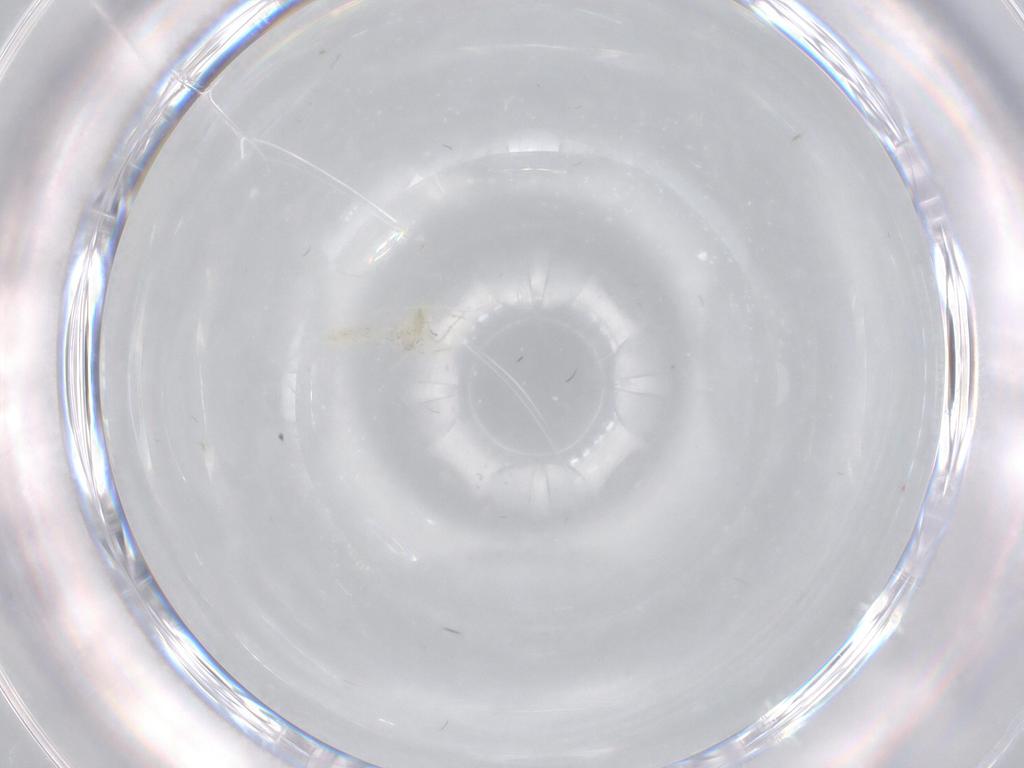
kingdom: Animalia
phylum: Arthropoda
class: Insecta
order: Hemiptera
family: Aleyrodidae
